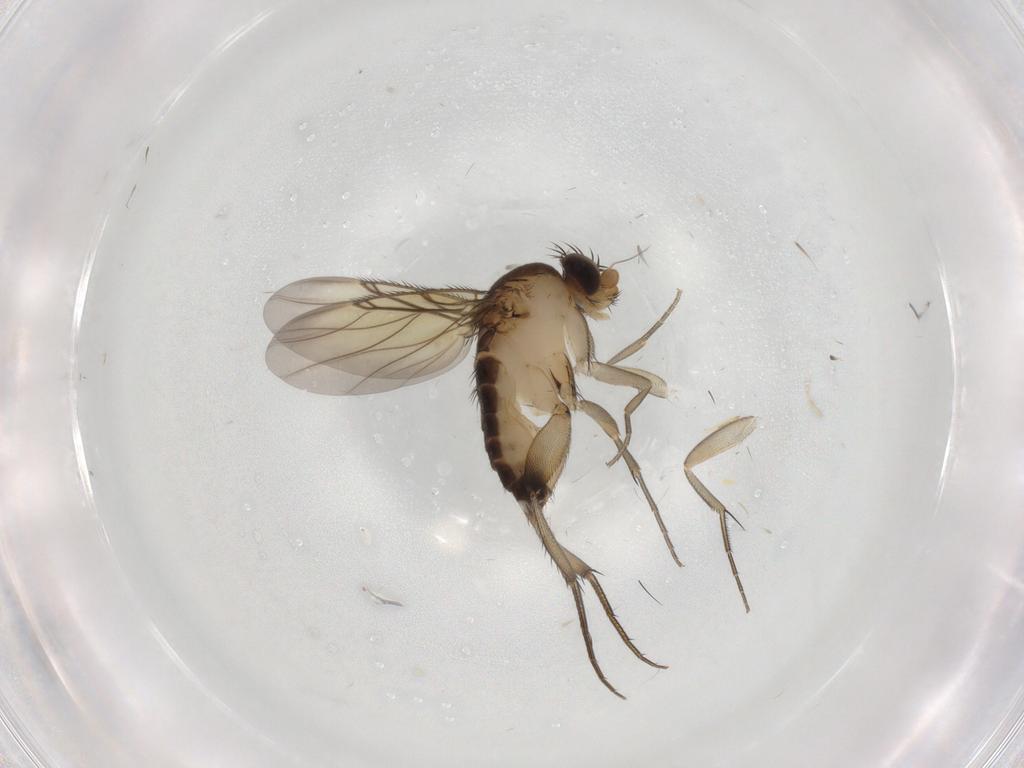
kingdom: Animalia
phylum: Arthropoda
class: Insecta
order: Diptera
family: Phoridae
